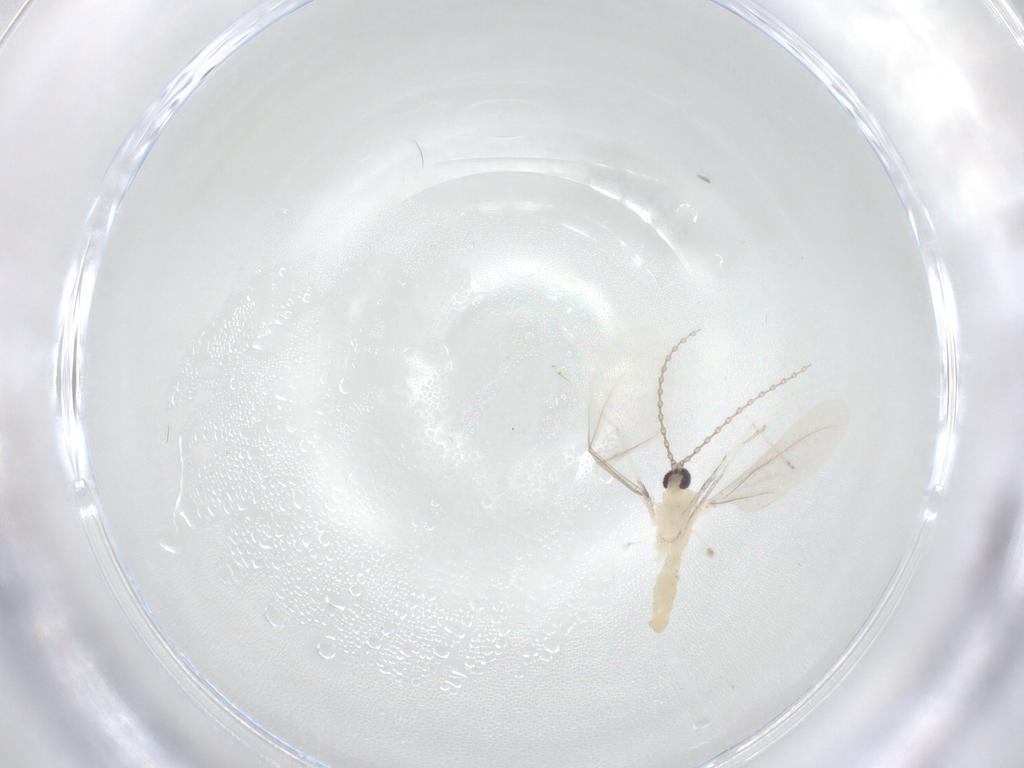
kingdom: Animalia
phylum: Arthropoda
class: Insecta
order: Diptera
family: Cecidomyiidae
